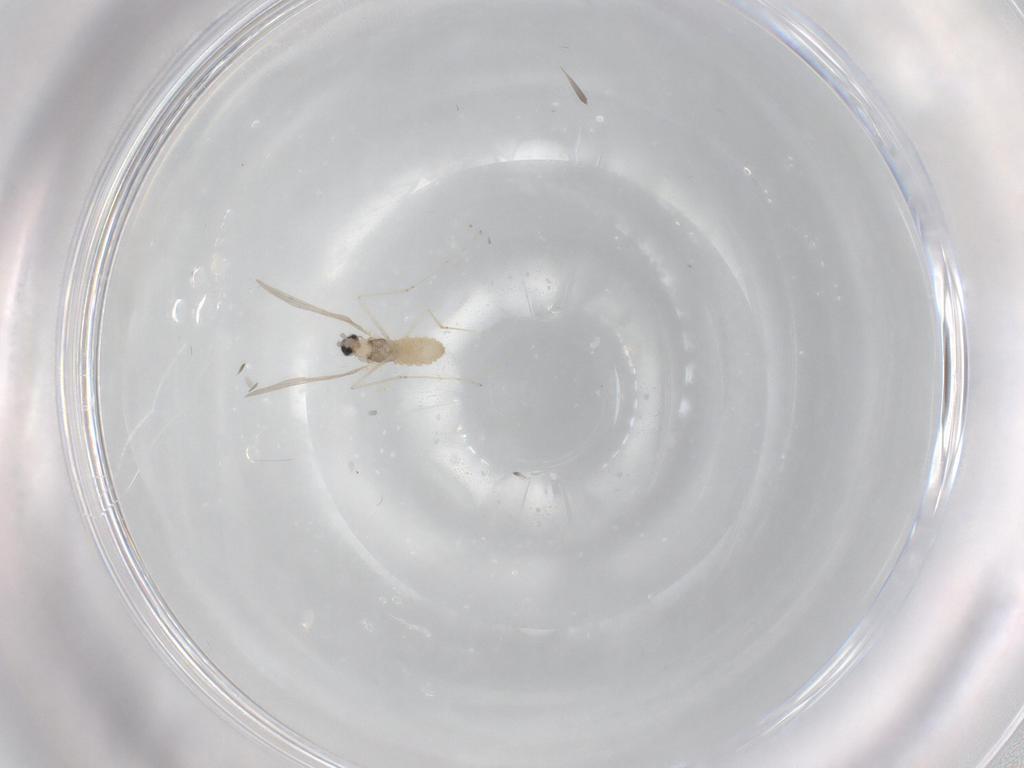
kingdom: Animalia
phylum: Arthropoda
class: Insecta
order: Diptera
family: Cecidomyiidae
